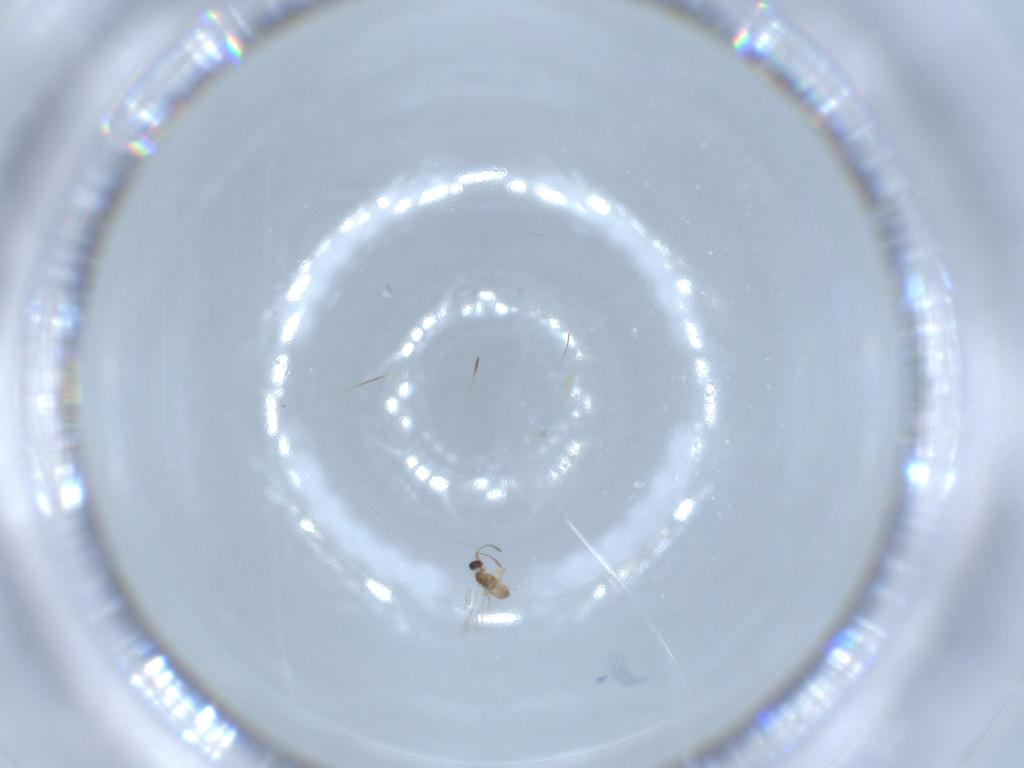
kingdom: Animalia
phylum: Arthropoda
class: Insecta
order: Hymenoptera
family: Mymaridae
